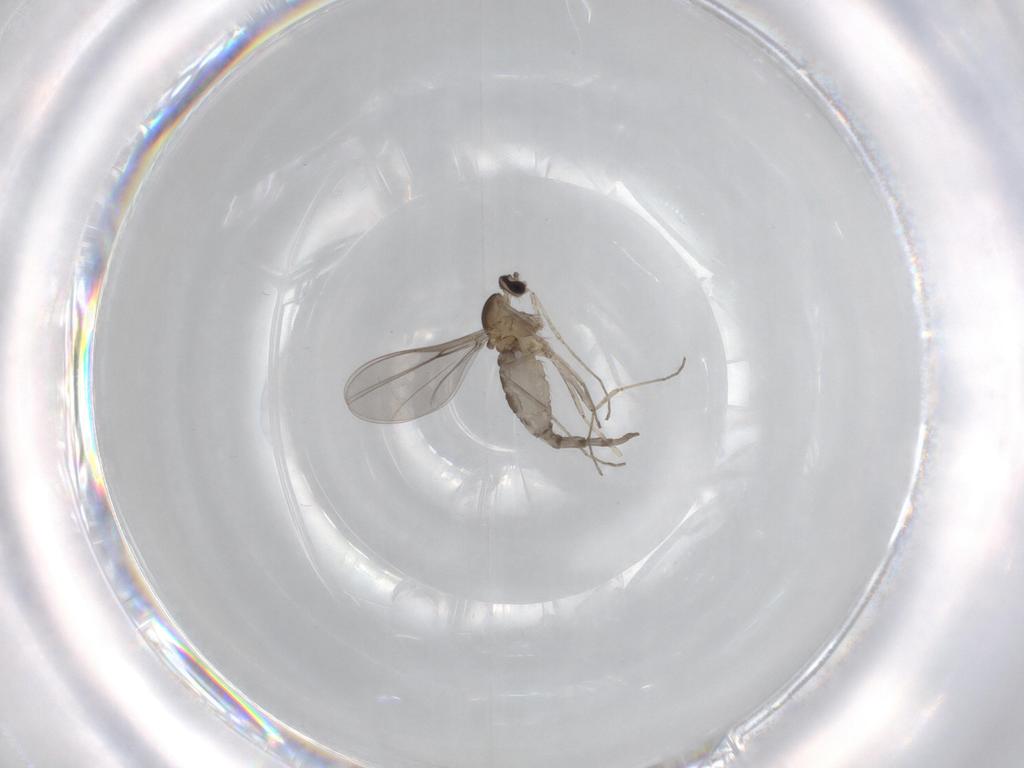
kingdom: Animalia
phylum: Arthropoda
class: Insecta
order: Diptera
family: Cecidomyiidae
